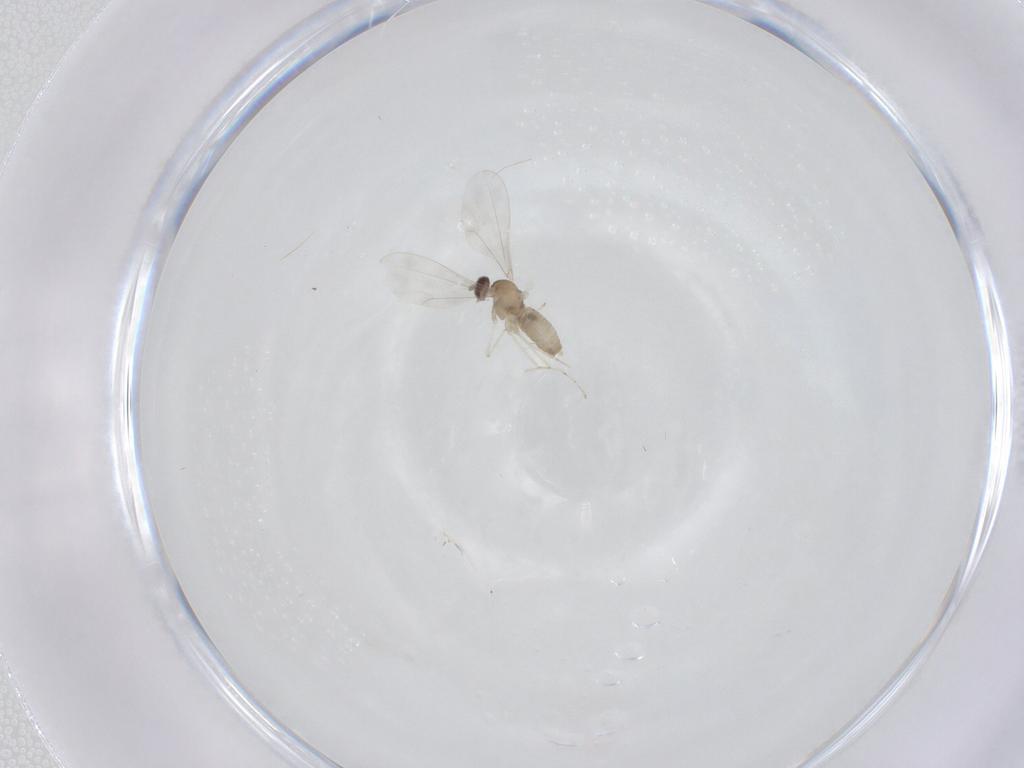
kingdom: Animalia
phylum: Arthropoda
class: Insecta
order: Diptera
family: Cecidomyiidae
